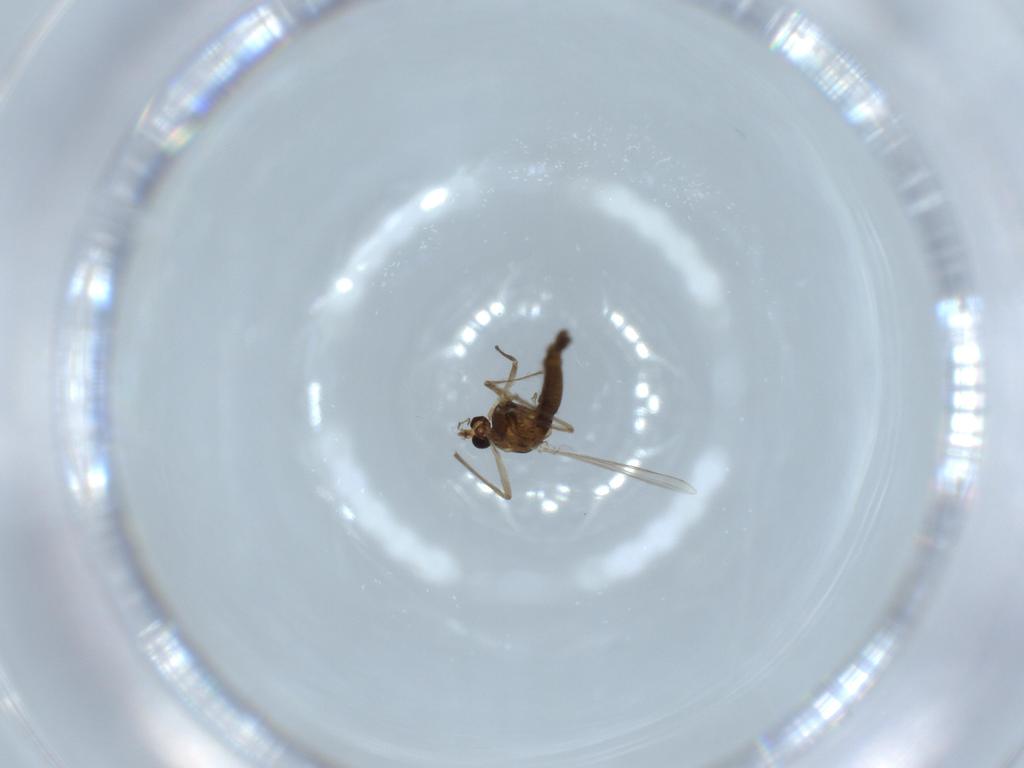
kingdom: Animalia
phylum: Arthropoda
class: Insecta
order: Diptera
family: Chironomidae
